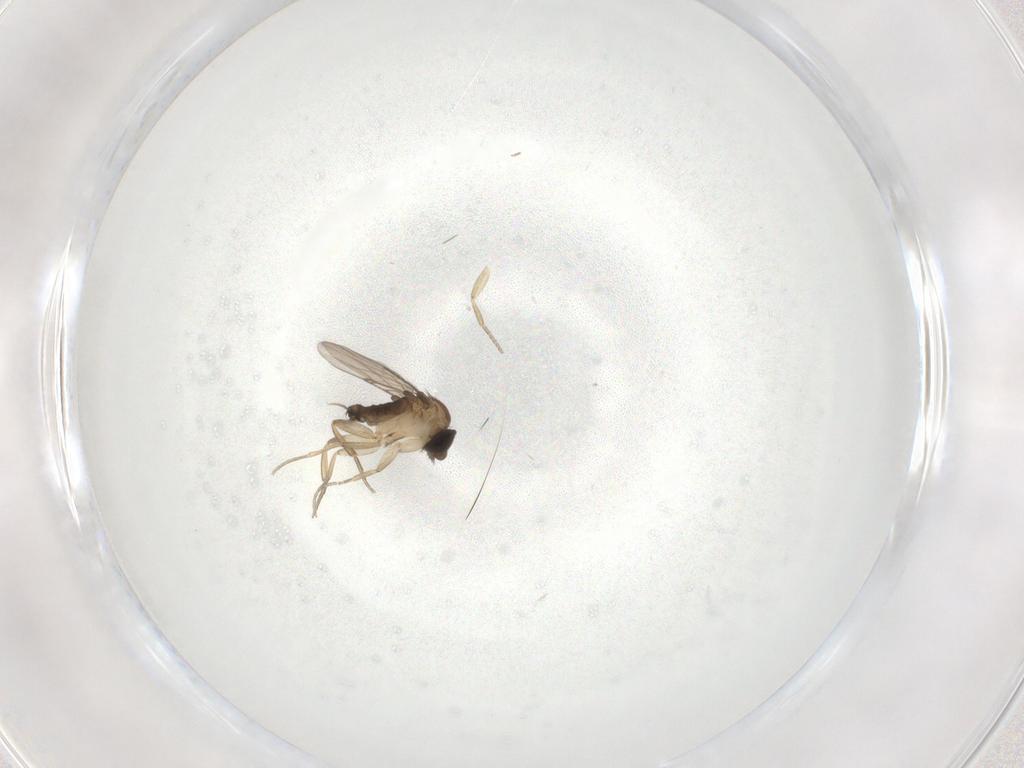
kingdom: Animalia
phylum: Arthropoda
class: Insecta
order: Diptera
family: Phoridae
